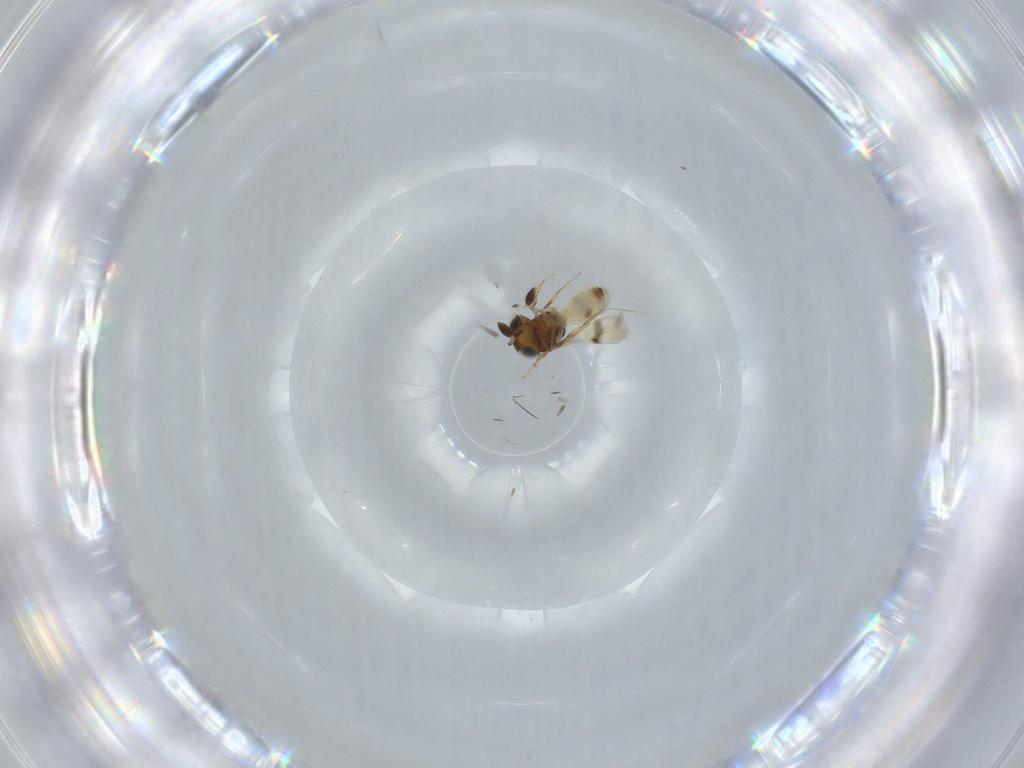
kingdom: Animalia
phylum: Arthropoda
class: Arachnida
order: Araneae
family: Pholcidae
